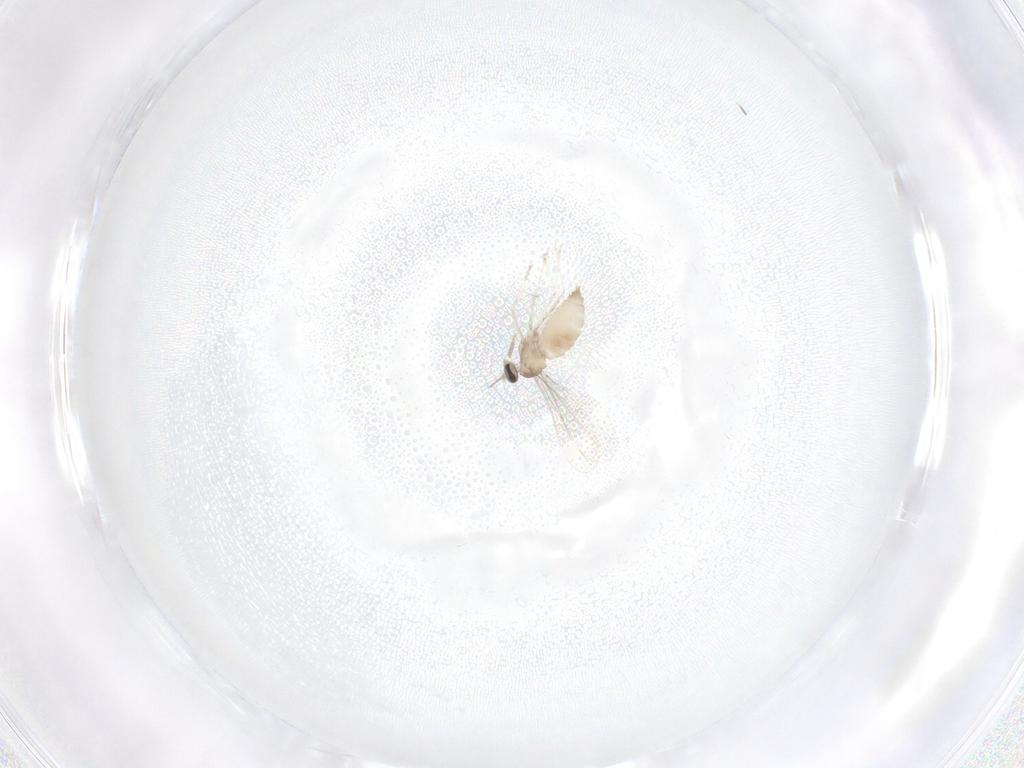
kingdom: Animalia
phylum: Arthropoda
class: Insecta
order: Diptera
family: Cecidomyiidae
